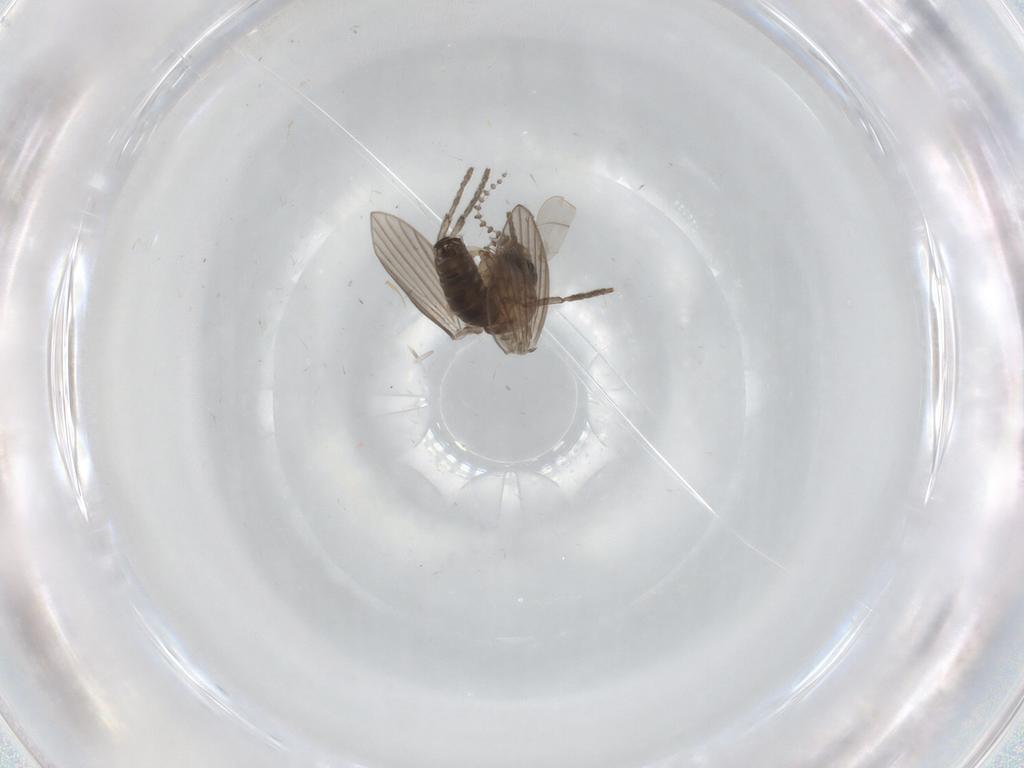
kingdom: Animalia
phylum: Arthropoda
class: Insecta
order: Diptera
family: Psychodidae
